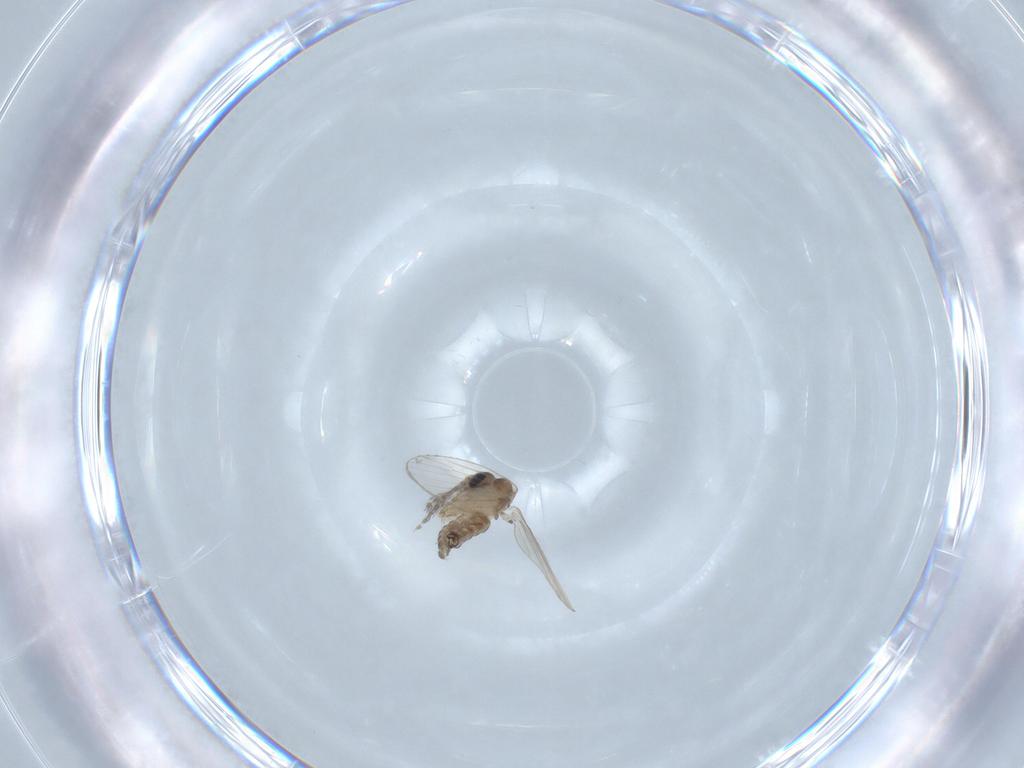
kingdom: Animalia
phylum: Arthropoda
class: Insecta
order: Diptera
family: Psychodidae
